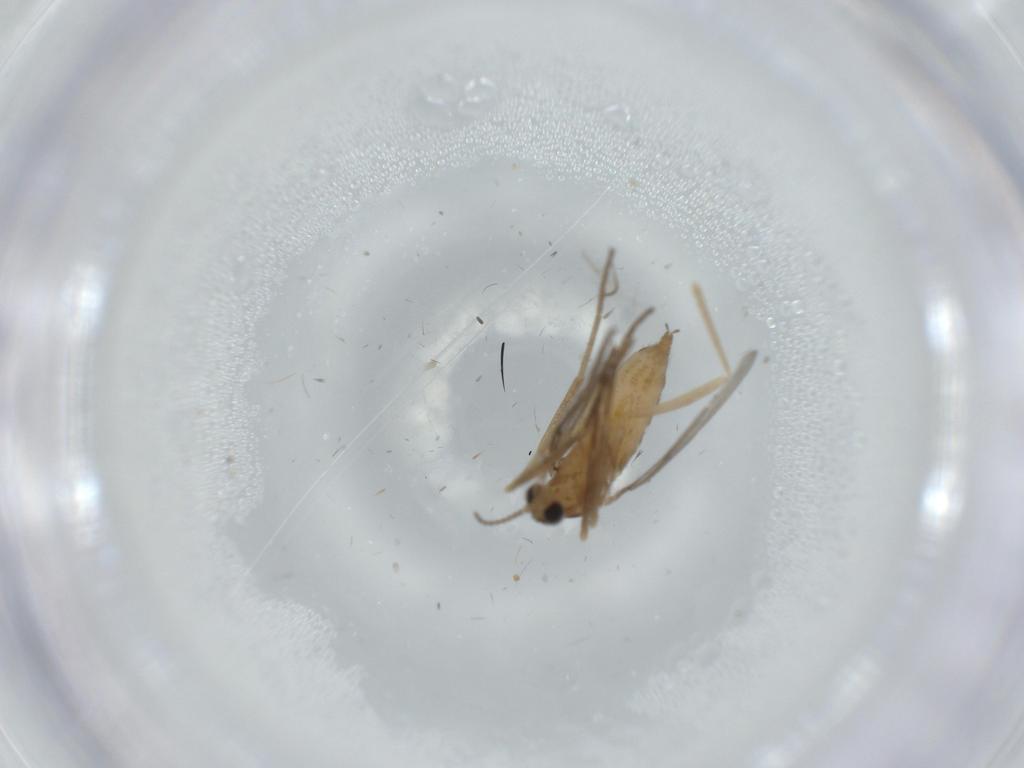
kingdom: Animalia
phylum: Arthropoda
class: Insecta
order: Diptera
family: Cecidomyiidae
